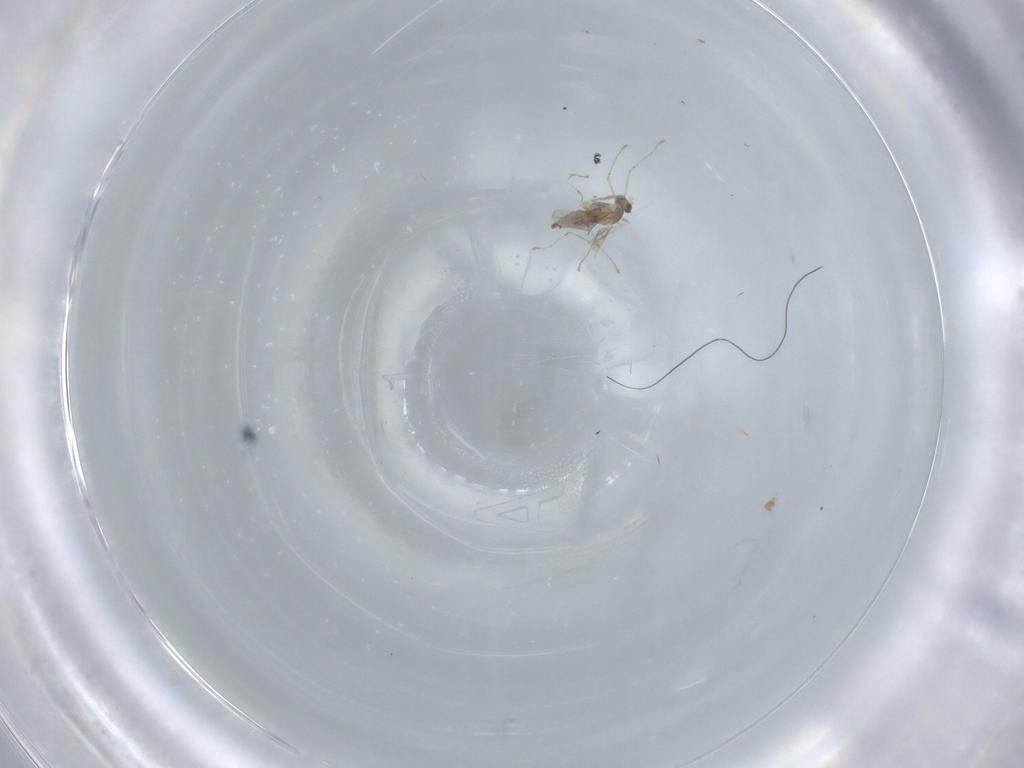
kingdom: Animalia
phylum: Arthropoda
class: Insecta
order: Diptera
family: Cecidomyiidae
